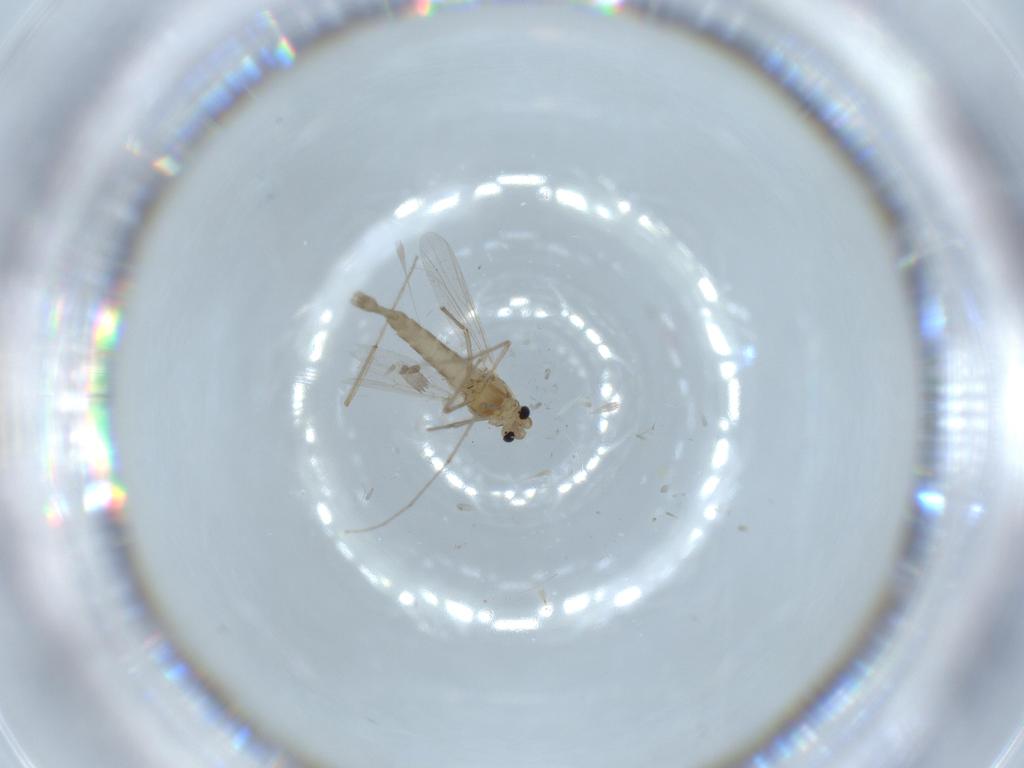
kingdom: Animalia
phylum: Arthropoda
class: Insecta
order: Diptera
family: Chironomidae
